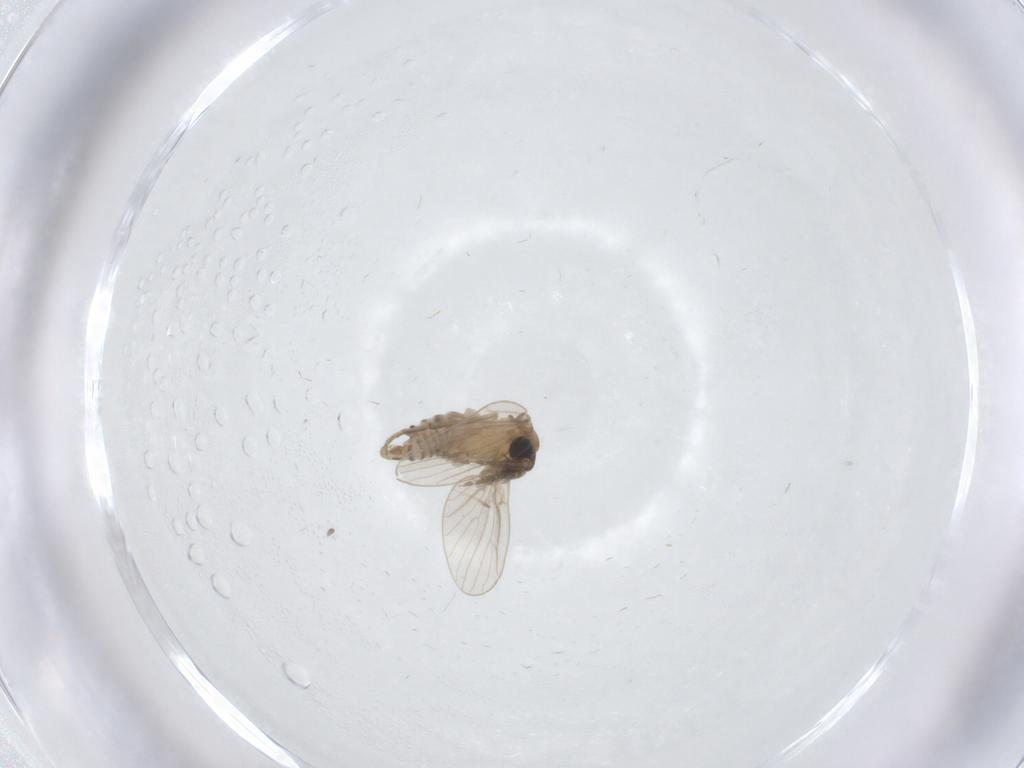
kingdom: Animalia
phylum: Arthropoda
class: Insecta
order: Diptera
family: Psychodidae
